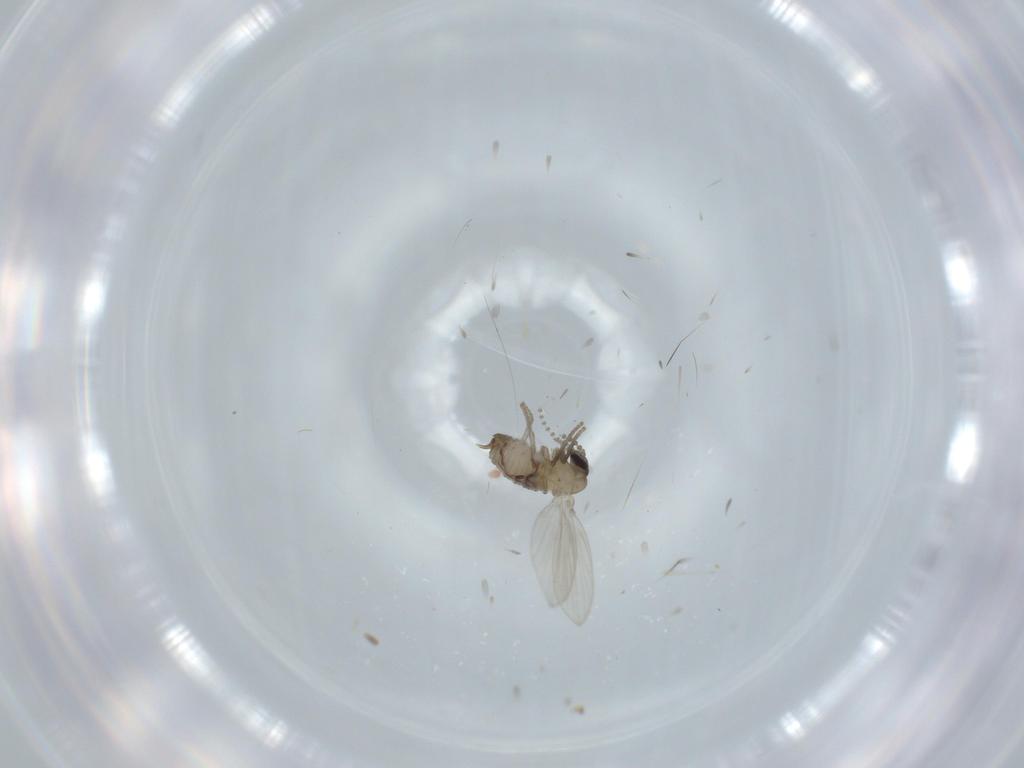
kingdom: Animalia
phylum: Arthropoda
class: Insecta
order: Diptera
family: Psychodidae
